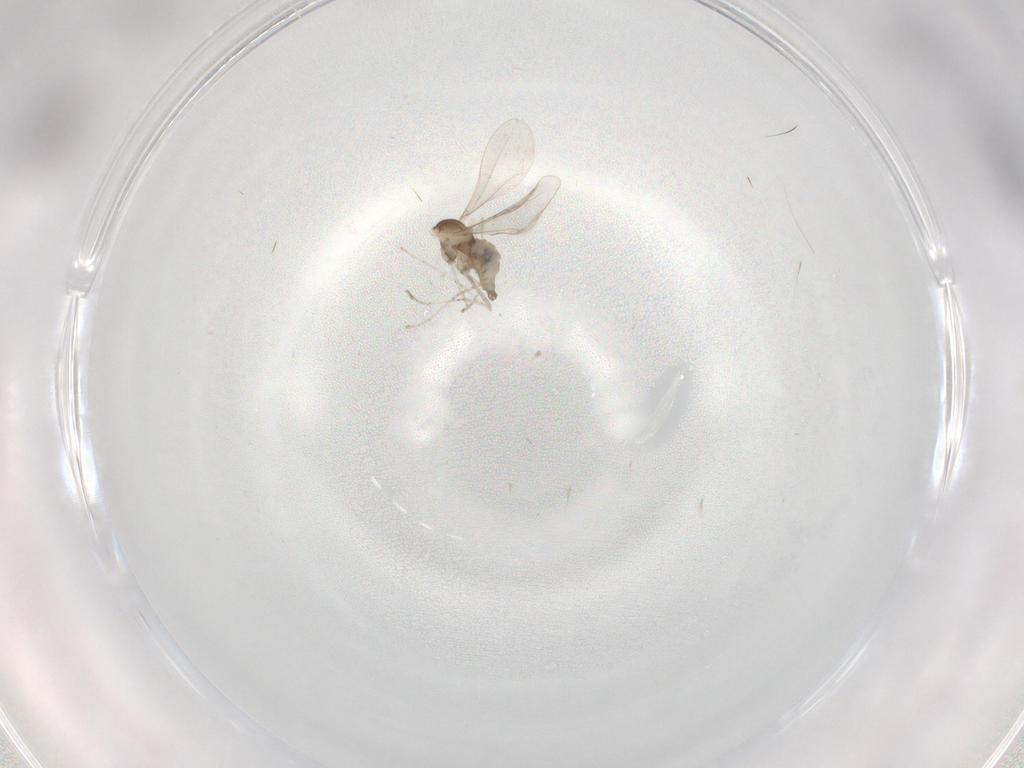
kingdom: Animalia
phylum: Arthropoda
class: Insecta
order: Diptera
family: Cecidomyiidae
